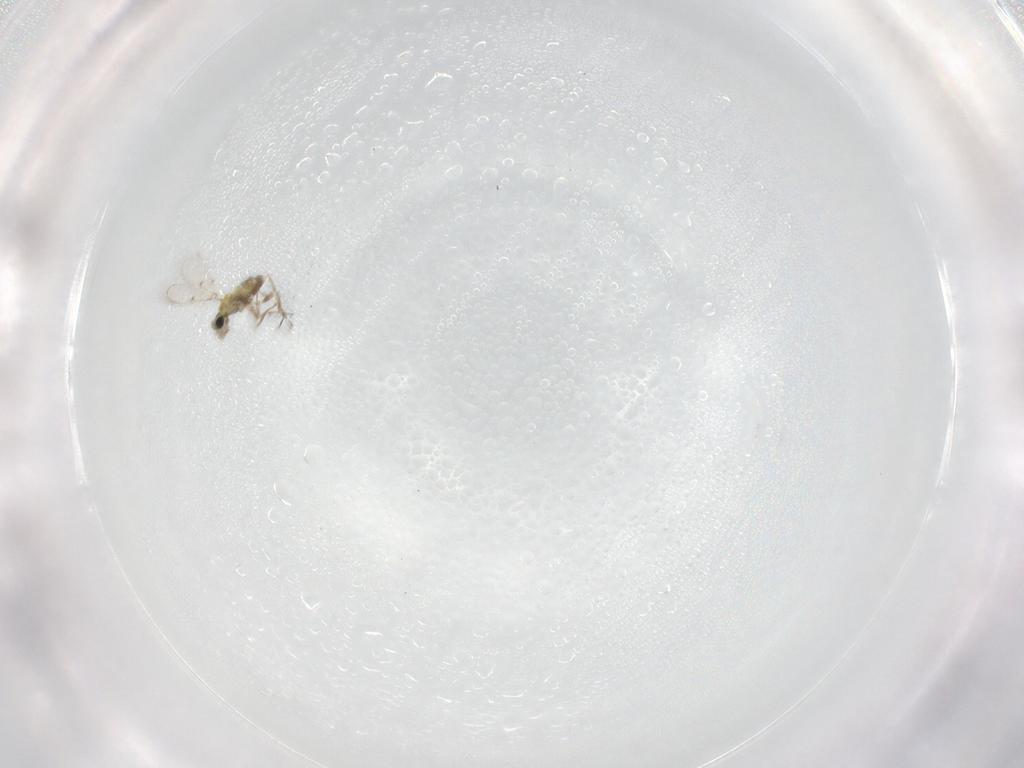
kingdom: Animalia
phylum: Arthropoda
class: Insecta
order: Hymenoptera
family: Trichogrammatidae
